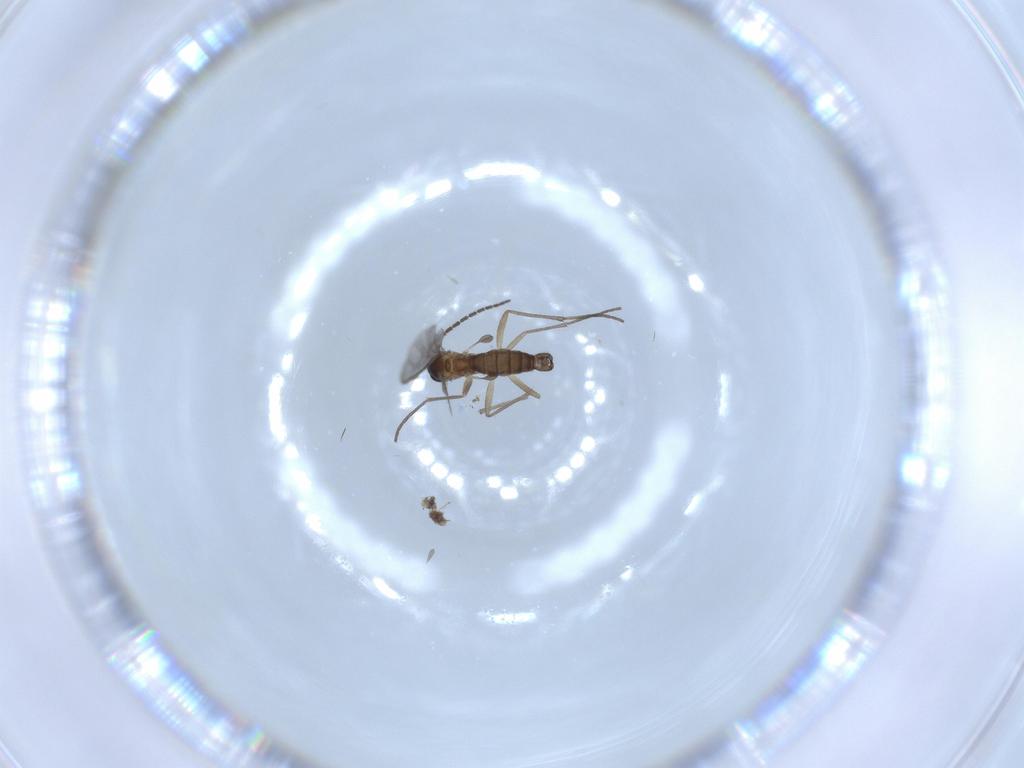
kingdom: Animalia
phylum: Arthropoda
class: Insecta
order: Diptera
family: Sciaridae
